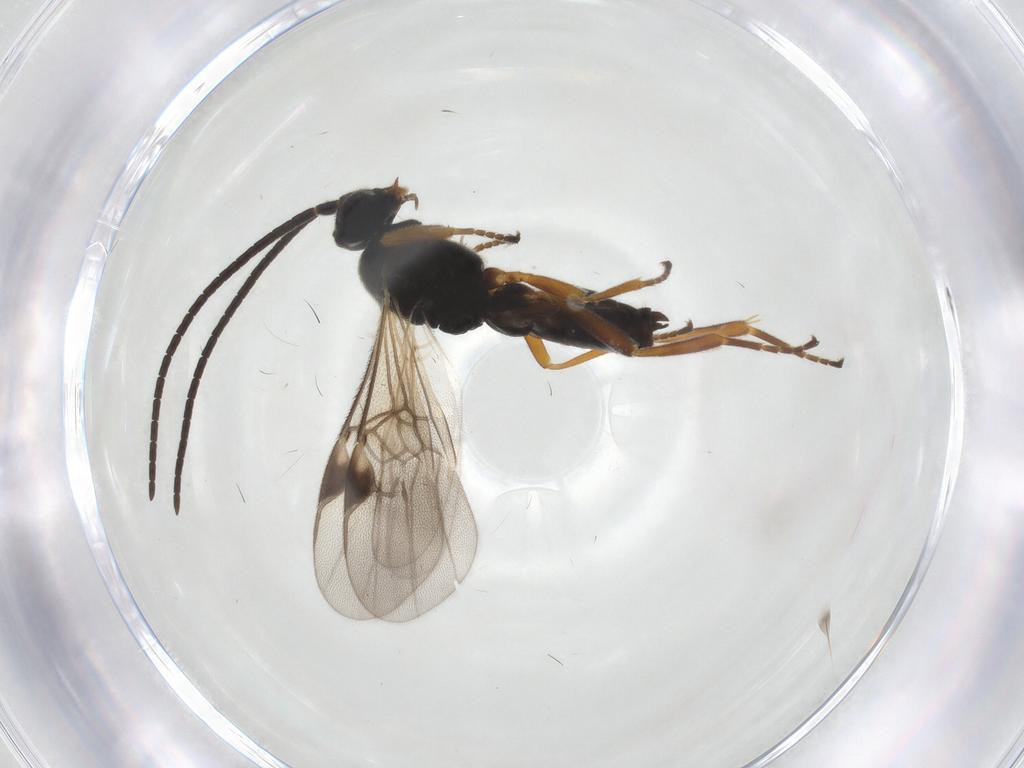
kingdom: Animalia
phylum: Arthropoda
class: Insecta
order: Hymenoptera
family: Braconidae
